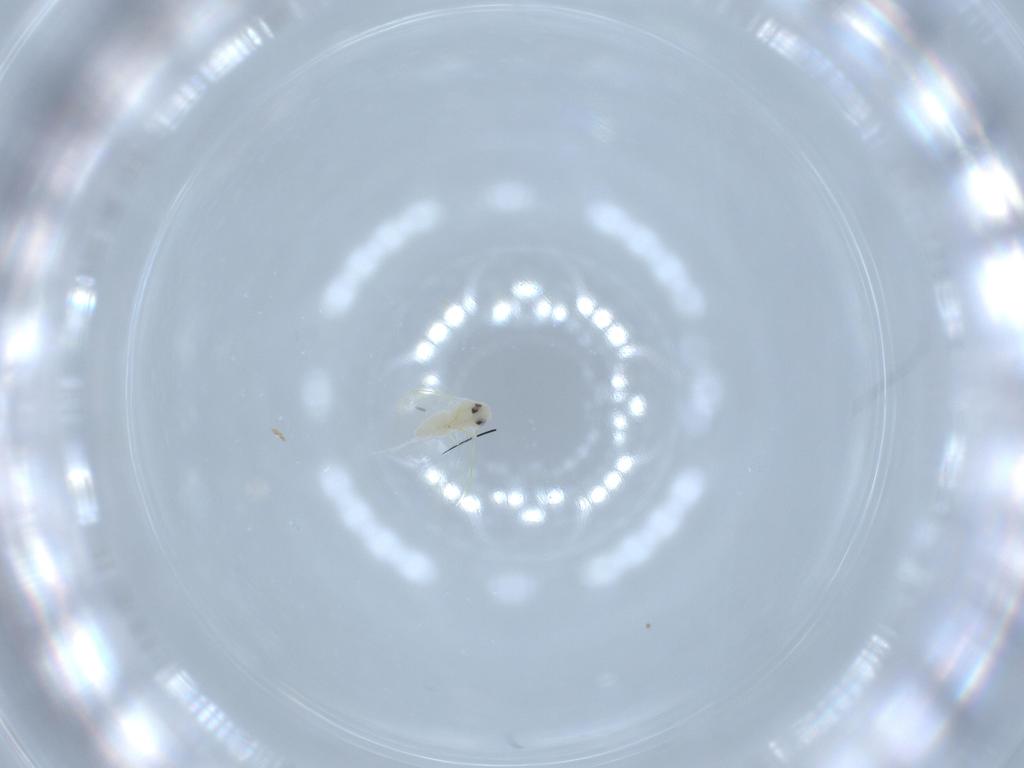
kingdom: Animalia
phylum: Arthropoda
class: Insecta
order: Hemiptera
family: Aleyrodidae
